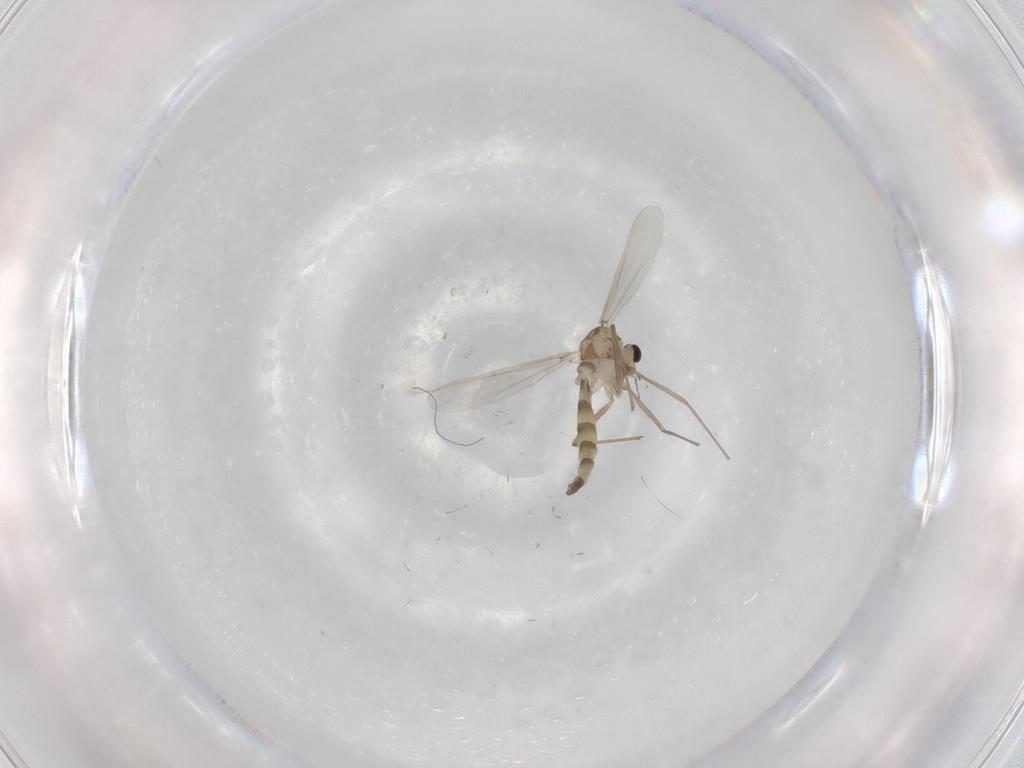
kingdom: Animalia
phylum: Arthropoda
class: Insecta
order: Diptera
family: Chironomidae
